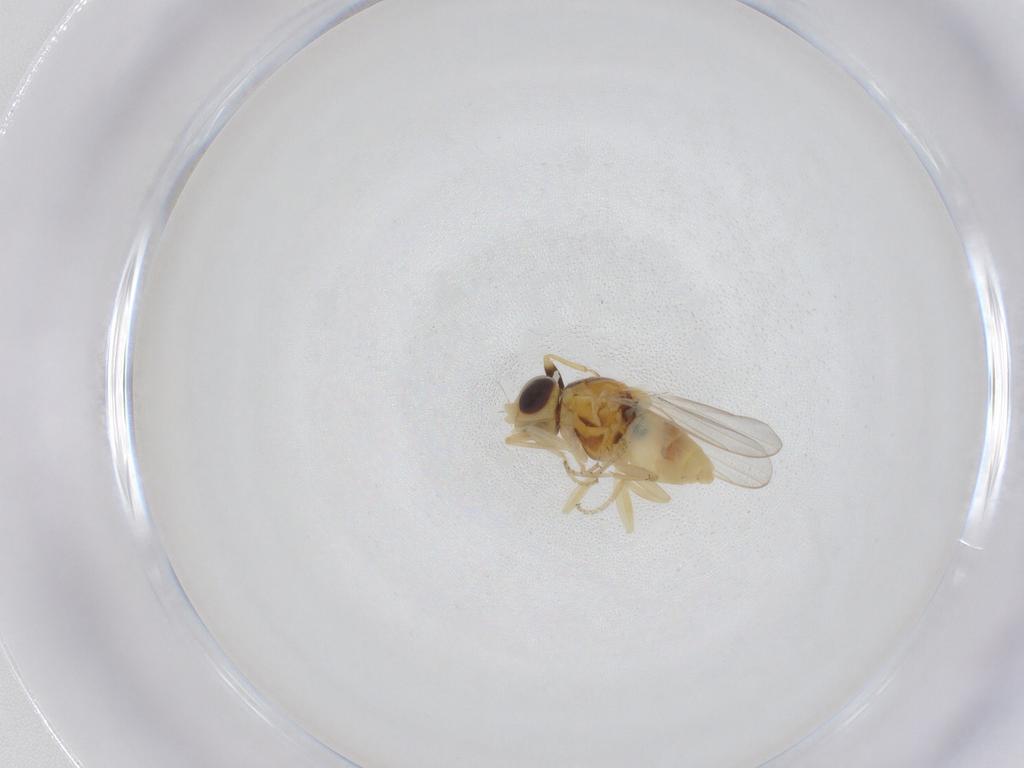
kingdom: Animalia
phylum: Arthropoda
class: Insecta
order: Diptera
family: Chloropidae
